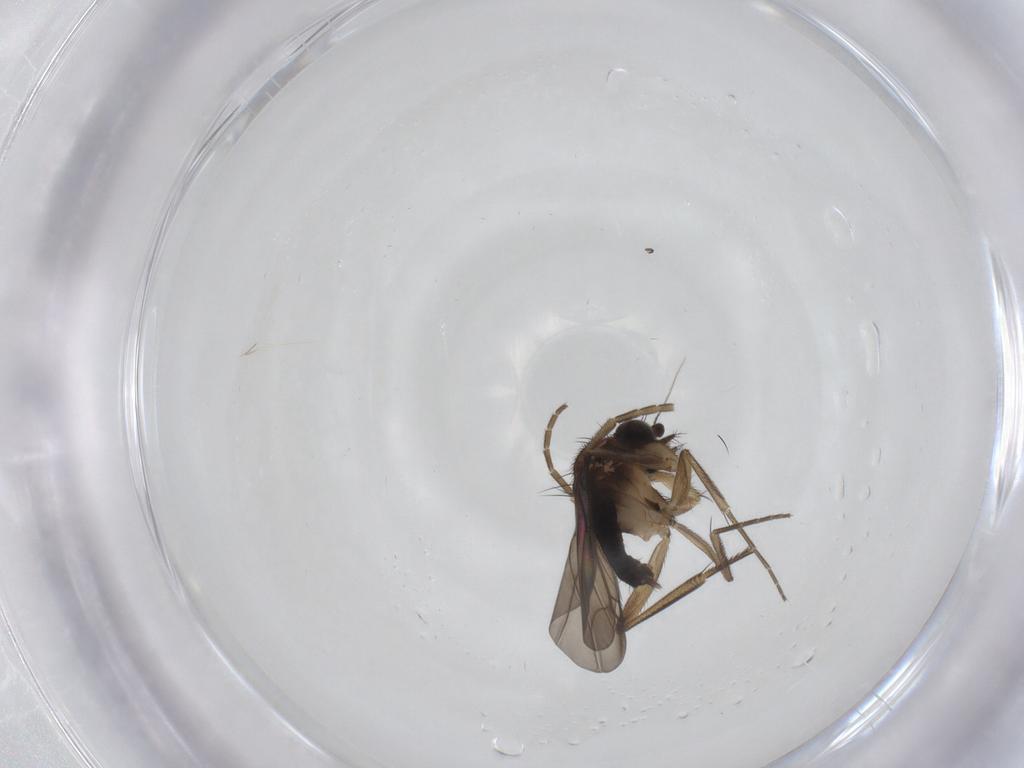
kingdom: Animalia
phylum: Arthropoda
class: Insecta
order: Diptera
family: Phoridae
